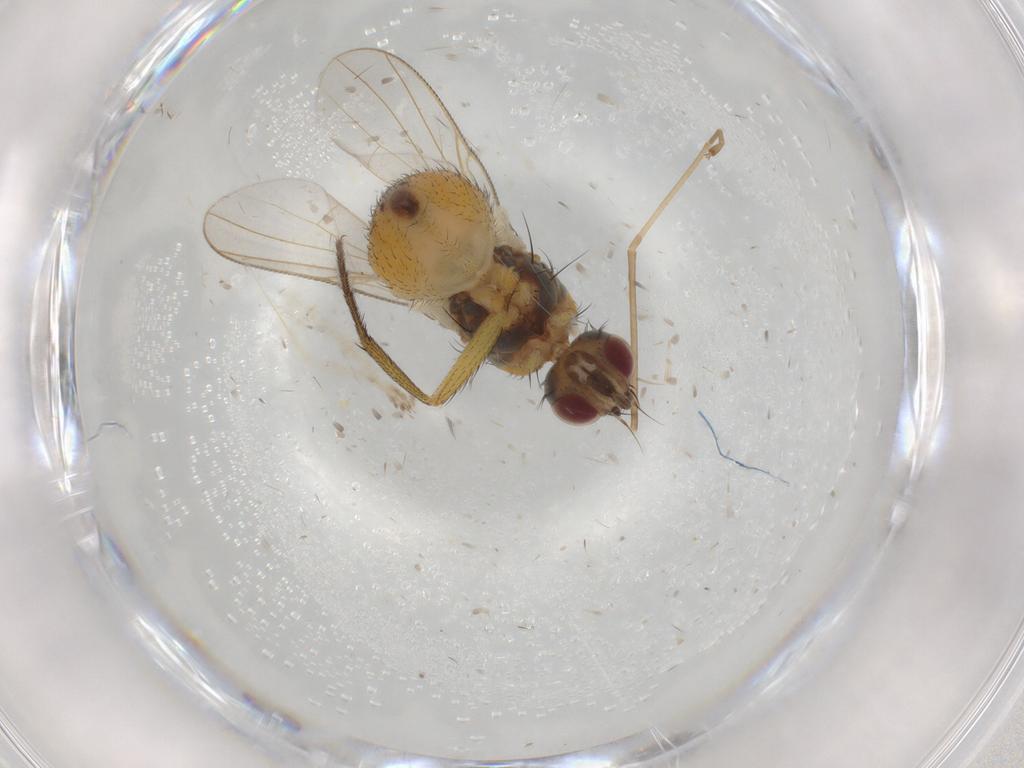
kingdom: Animalia
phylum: Arthropoda
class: Insecta
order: Diptera
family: Muscidae
